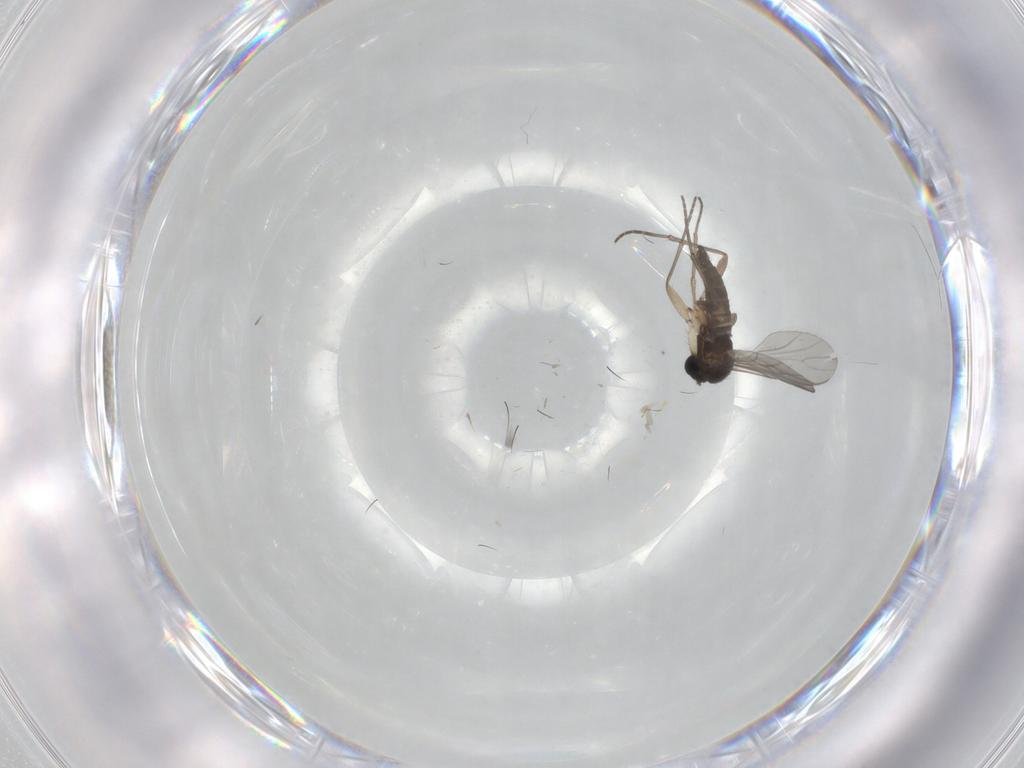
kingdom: Animalia
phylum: Arthropoda
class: Insecta
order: Diptera
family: Sciaridae
